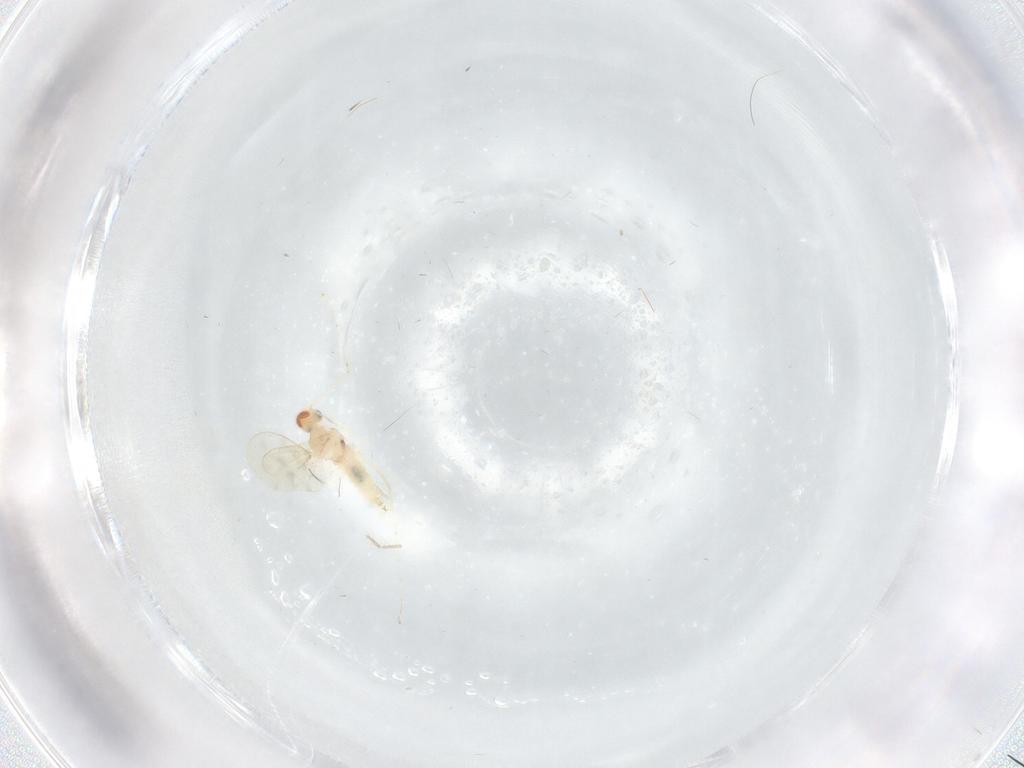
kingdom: Animalia
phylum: Arthropoda
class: Insecta
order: Diptera
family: Cecidomyiidae
